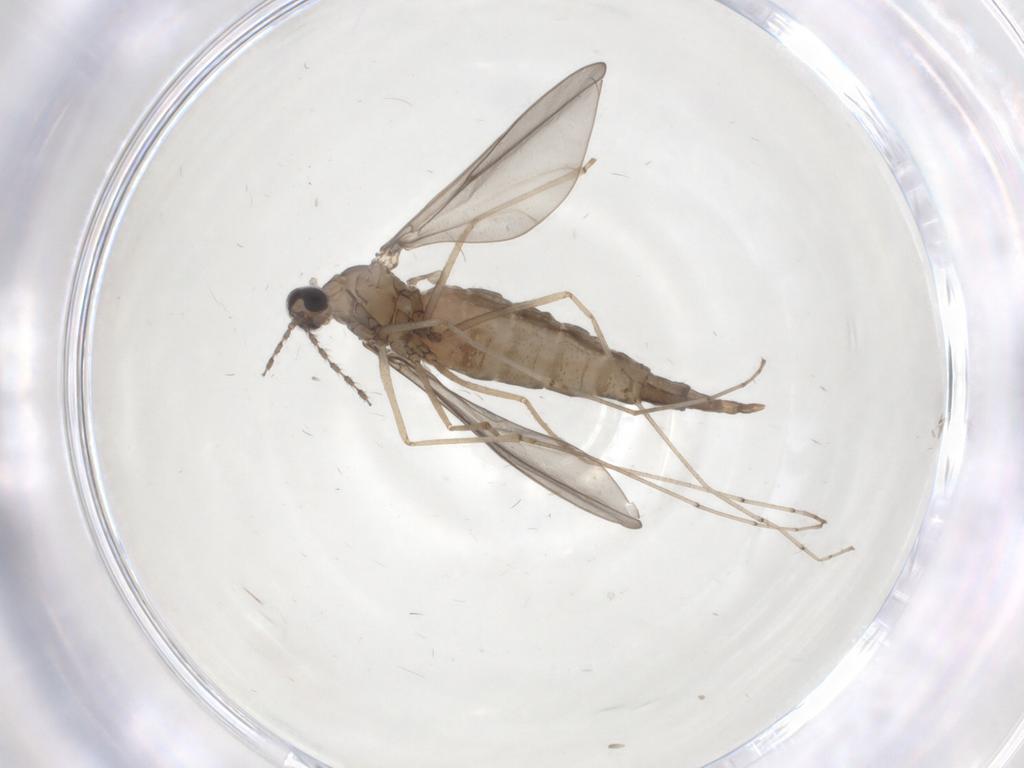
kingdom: Animalia
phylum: Arthropoda
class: Insecta
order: Diptera
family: Chironomidae
